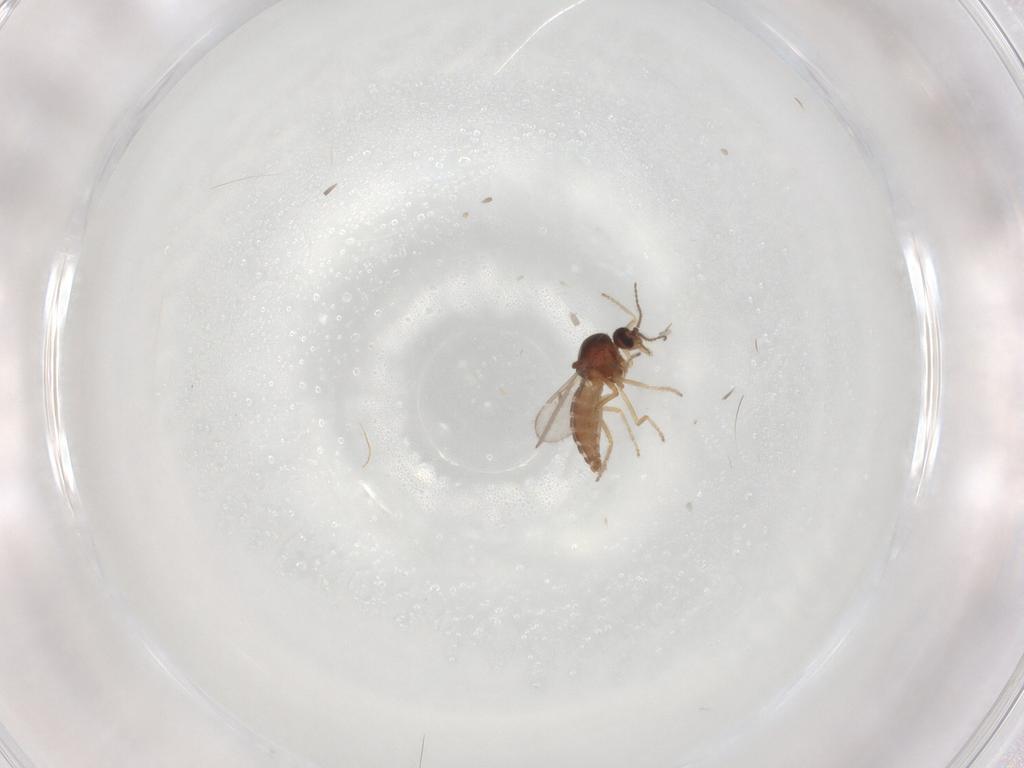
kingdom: Animalia
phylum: Arthropoda
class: Insecta
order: Diptera
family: Ceratopogonidae
